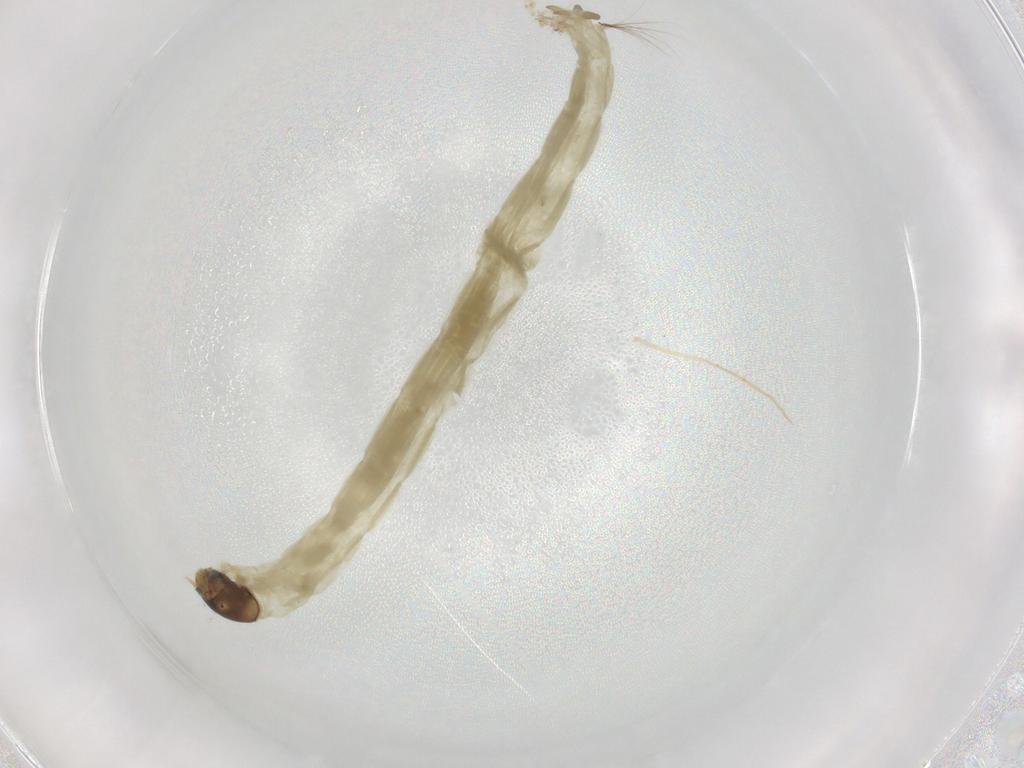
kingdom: Animalia
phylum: Arthropoda
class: Insecta
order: Diptera
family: Chironomidae
